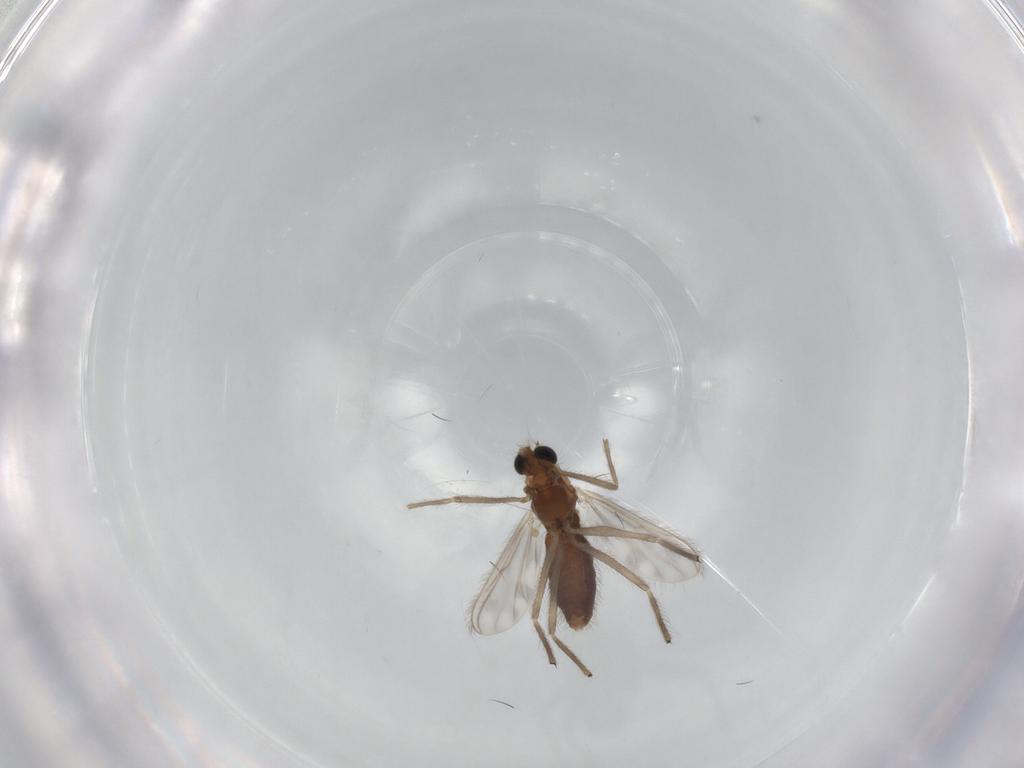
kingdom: Animalia
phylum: Arthropoda
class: Insecta
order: Diptera
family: Chironomidae
